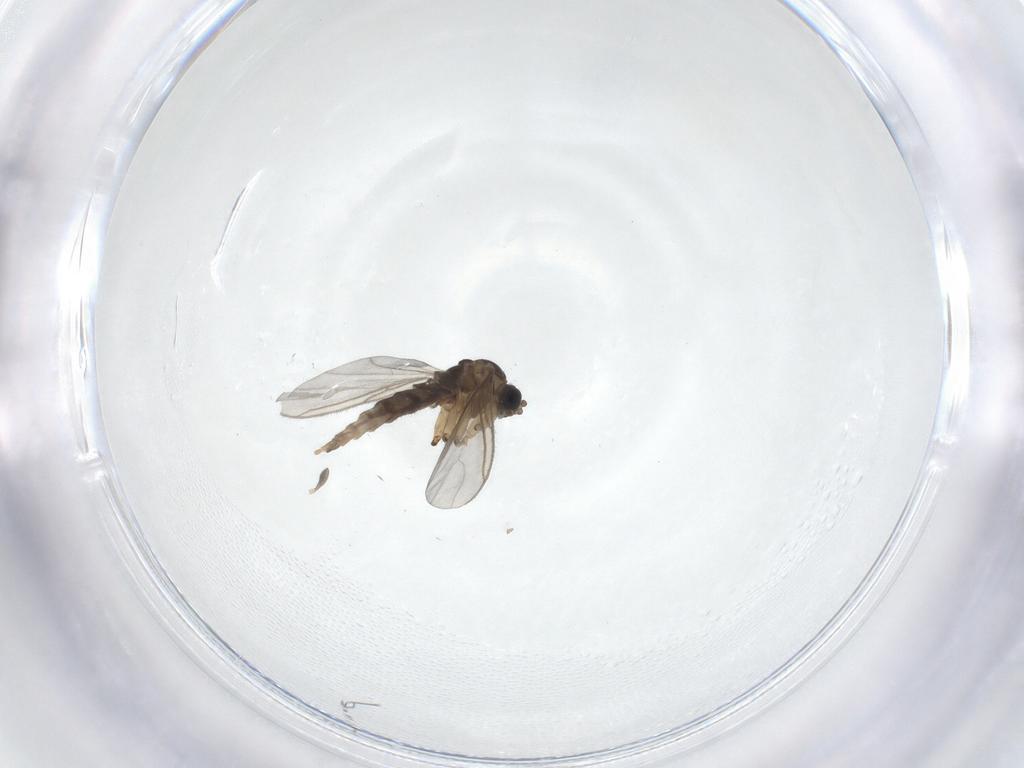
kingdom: Animalia
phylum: Arthropoda
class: Insecta
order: Diptera
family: Sciaridae
